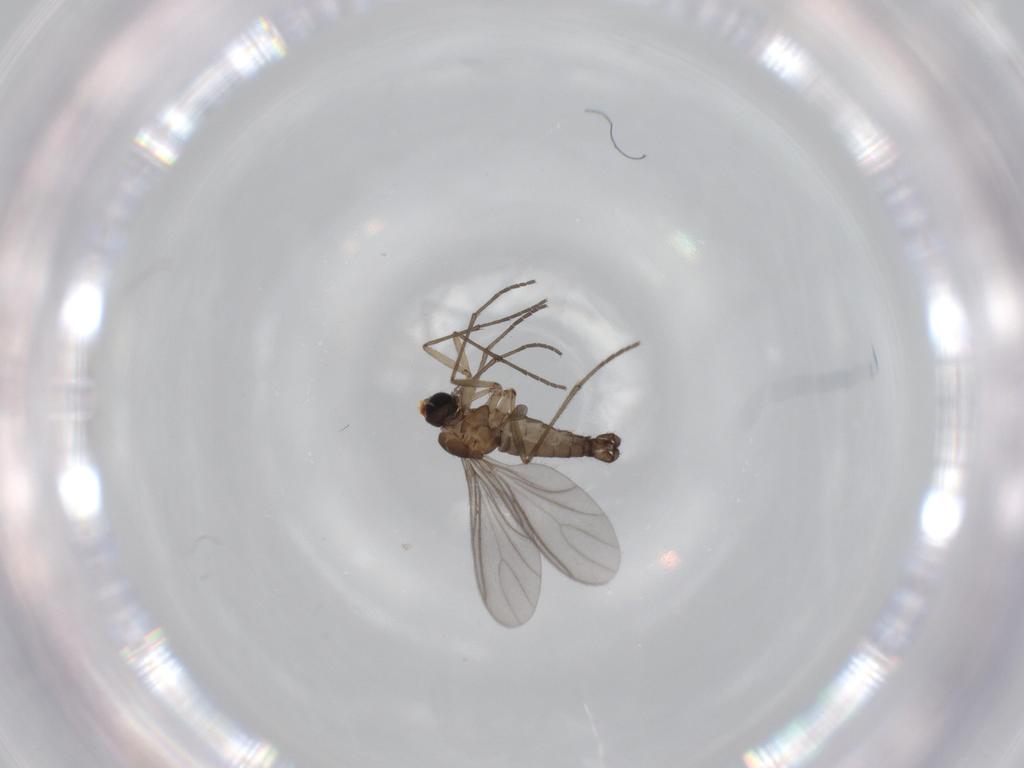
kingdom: Animalia
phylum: Arthropoda
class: Insecta
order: Diptera
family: Sciaridae
